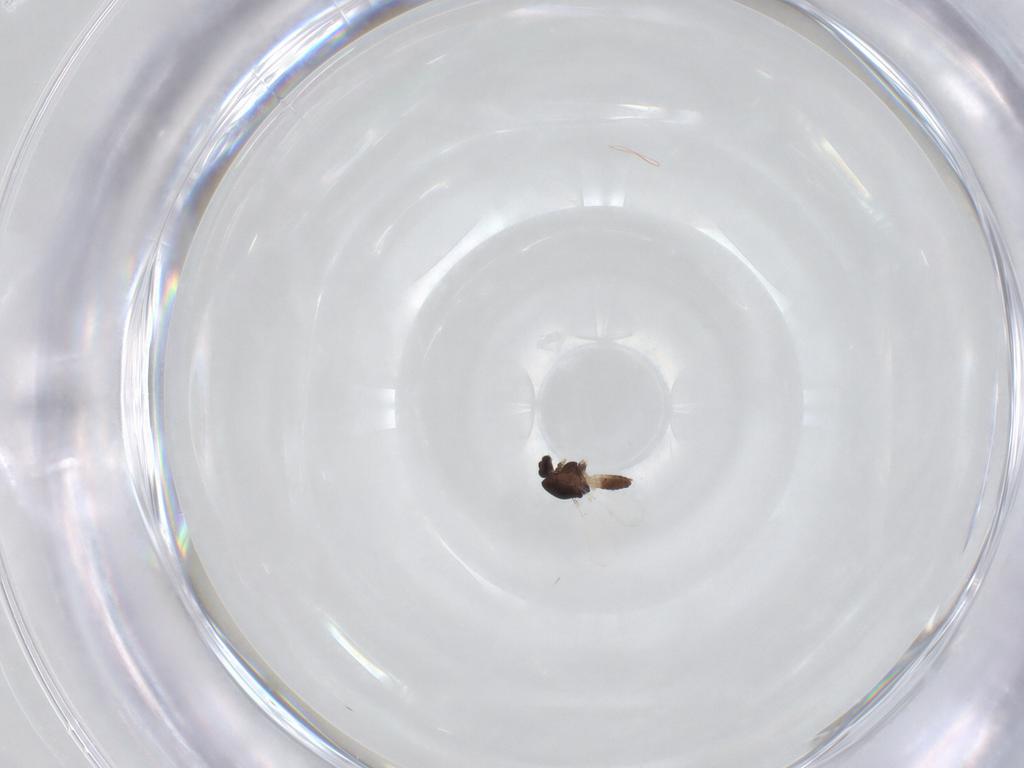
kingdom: Animalia
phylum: Arthropoda
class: Insecta
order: Diptera
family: Chironomidae
